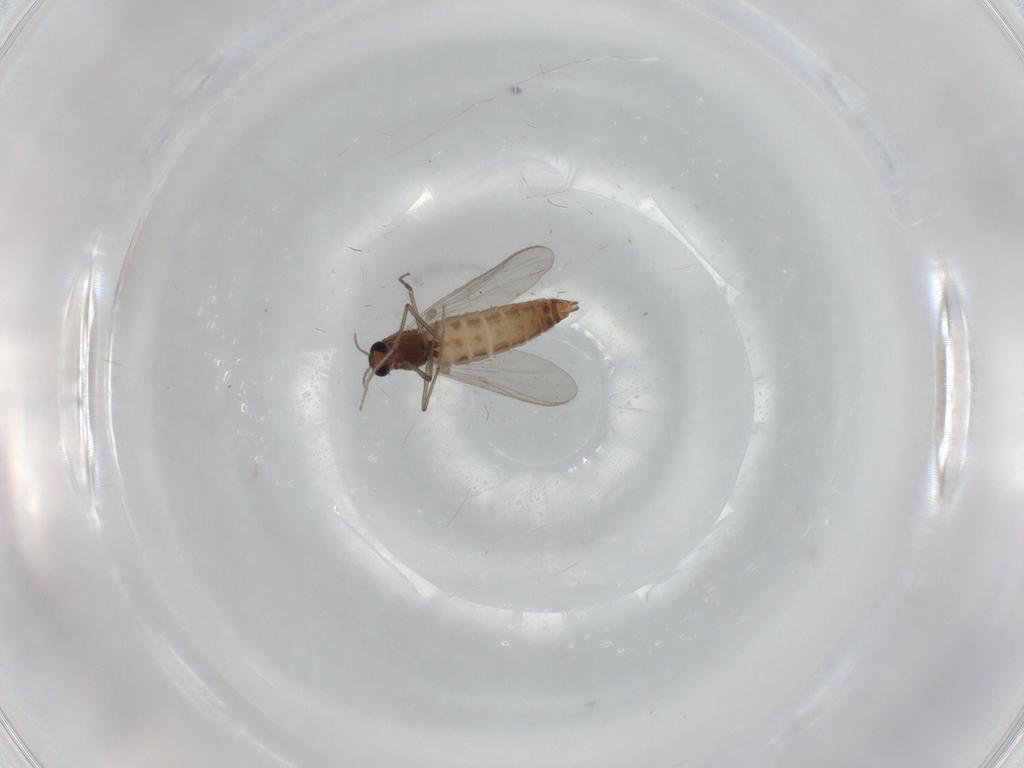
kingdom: Animalia
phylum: Arthropoda
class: Insecta
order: Diptera
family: Chironomidae
